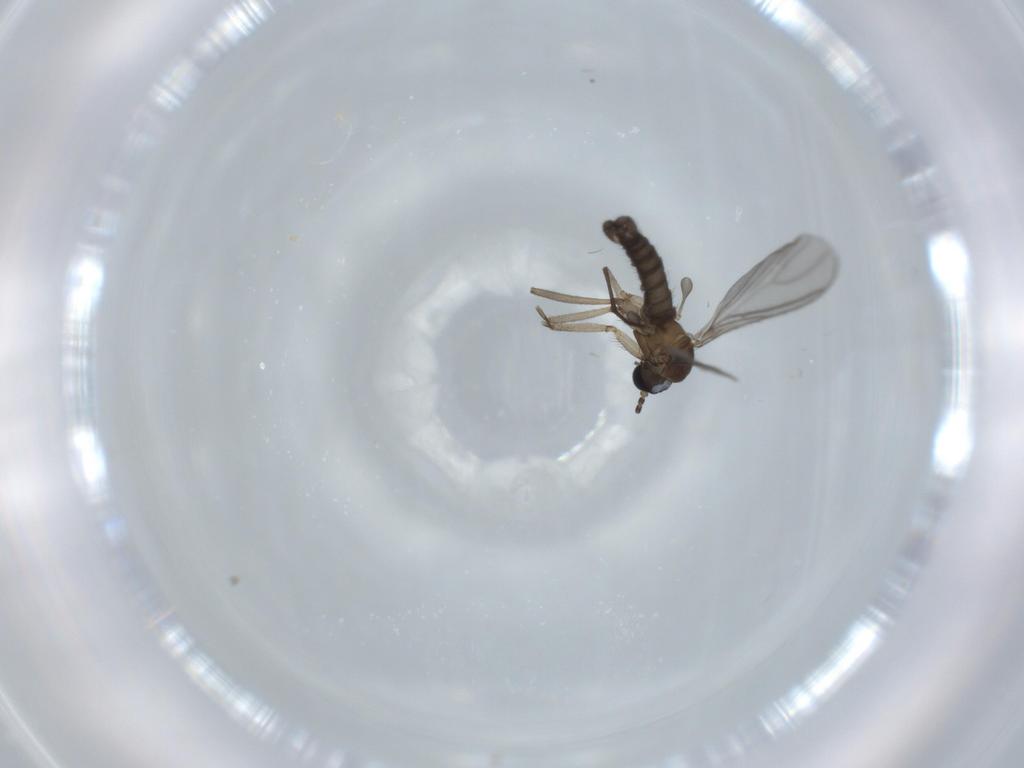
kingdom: Animalia
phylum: Arthropoda
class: Insecta
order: Diptera
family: Sciaridae
